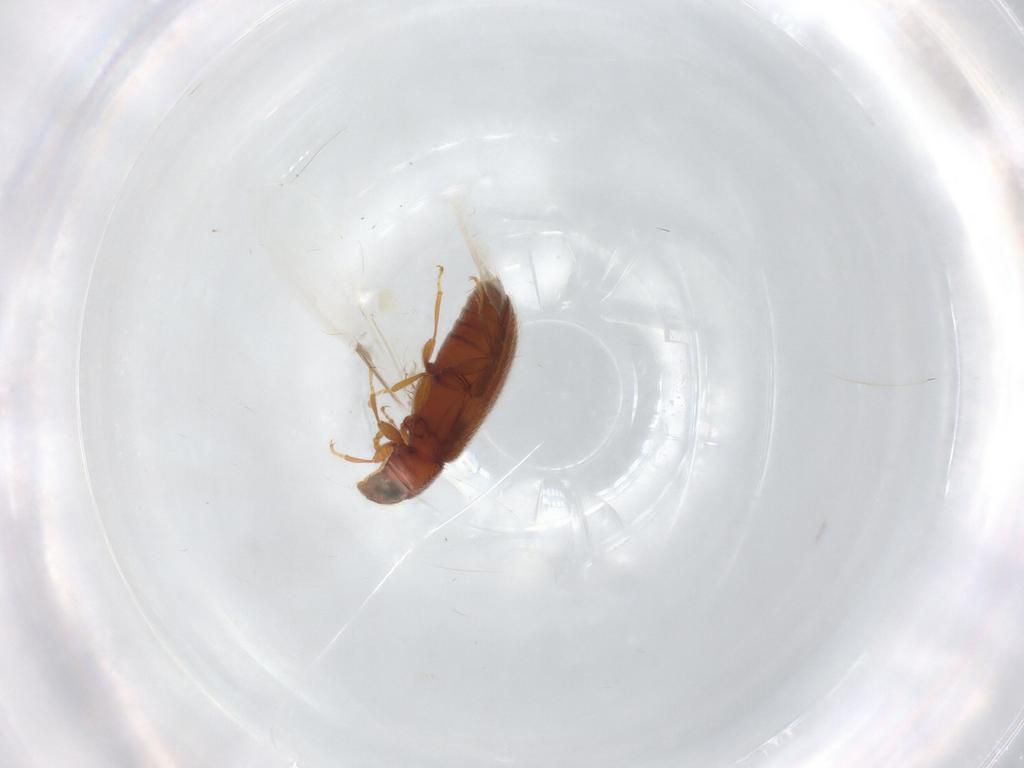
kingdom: Animalia
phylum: Arthropoda
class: Insecta
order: Coleoptera
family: Latridiidae
